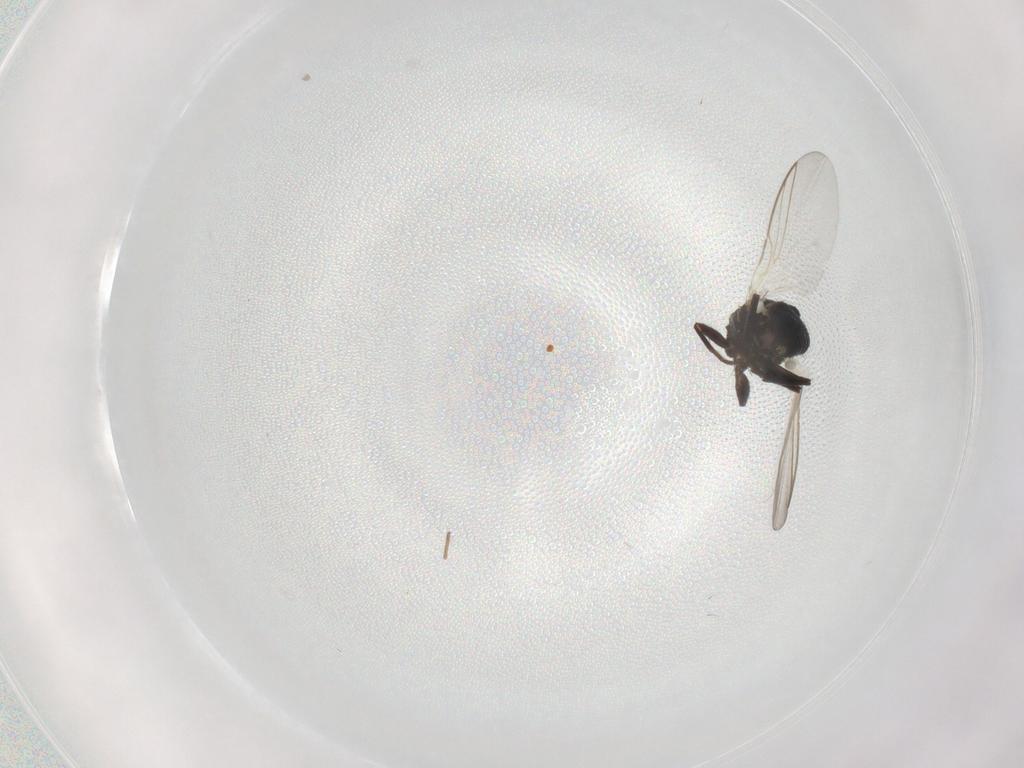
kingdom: Animalia
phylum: Arthropoda
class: Insecta
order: Diptera
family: Agromyzidae
